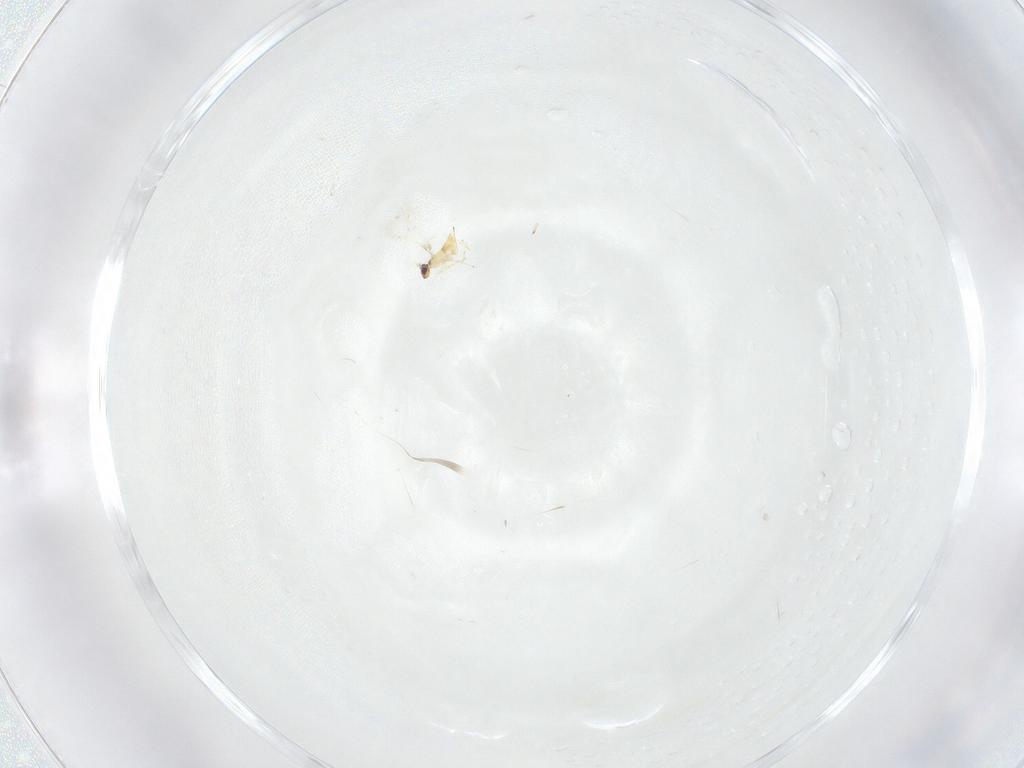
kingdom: Animalia
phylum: Arthropoda
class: Insecta
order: Hymenoptera
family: Mymaridae
